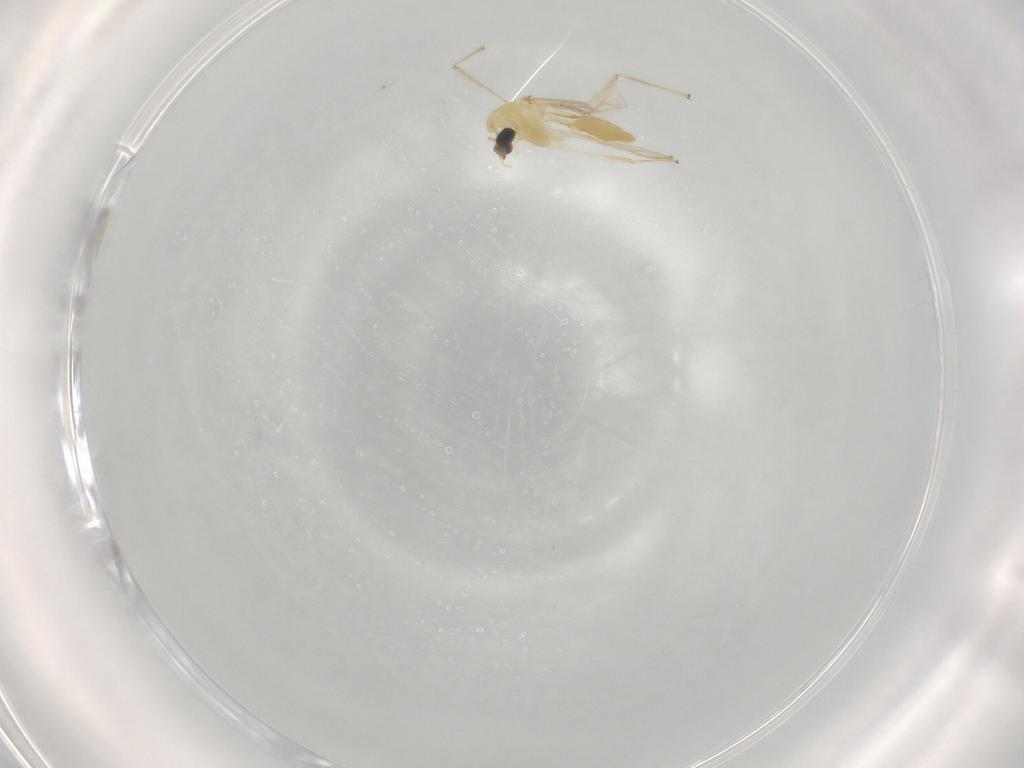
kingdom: Animalia
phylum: Arthropoda
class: Insecta
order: Diptera
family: Chironomidae
